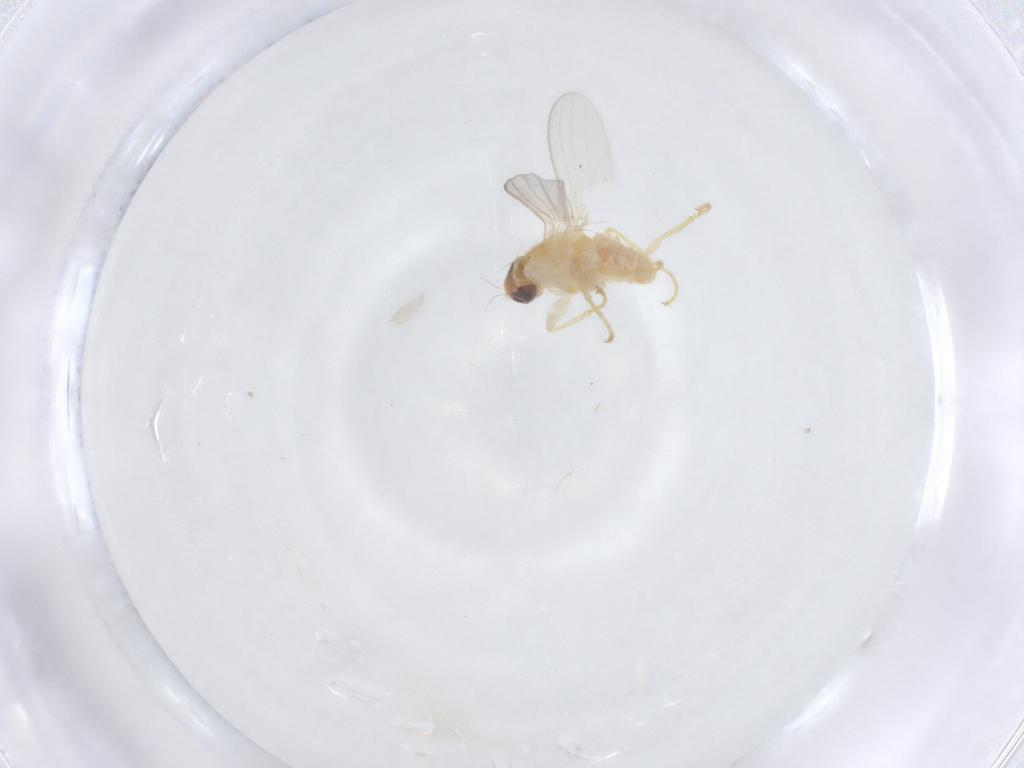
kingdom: Animalia
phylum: Arthropoda
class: Insecta
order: Diptera
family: Chyromyidae
